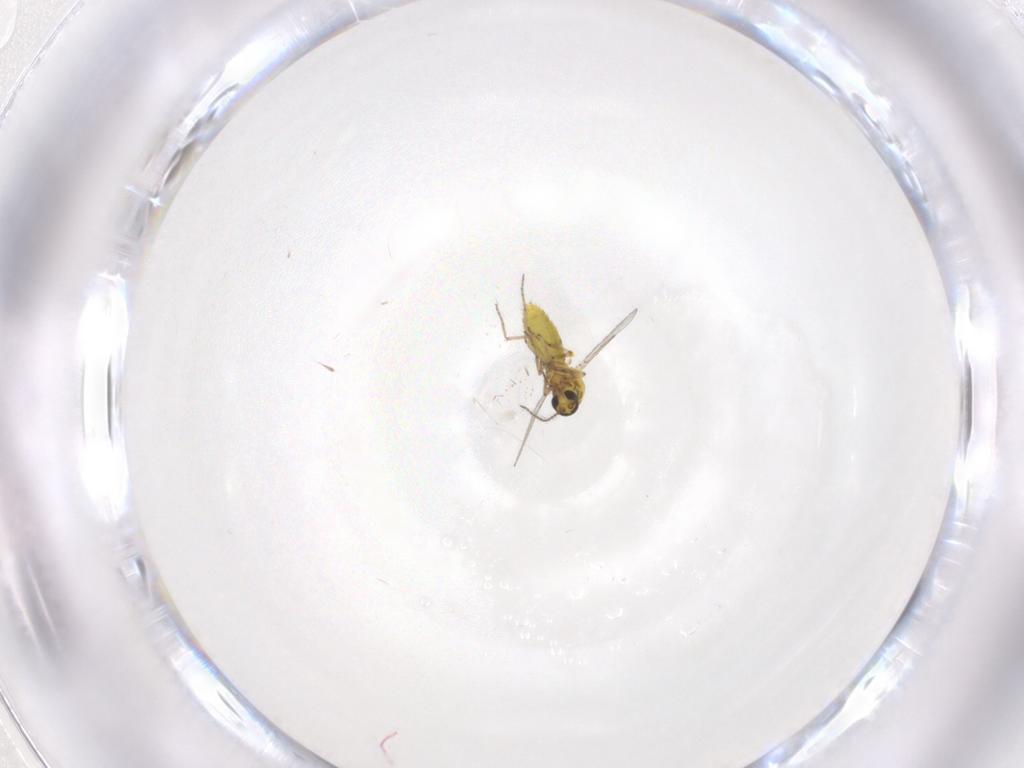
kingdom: Animalia
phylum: Arthropoda
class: Insecta
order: Diptera
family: Ceratopogonidae
